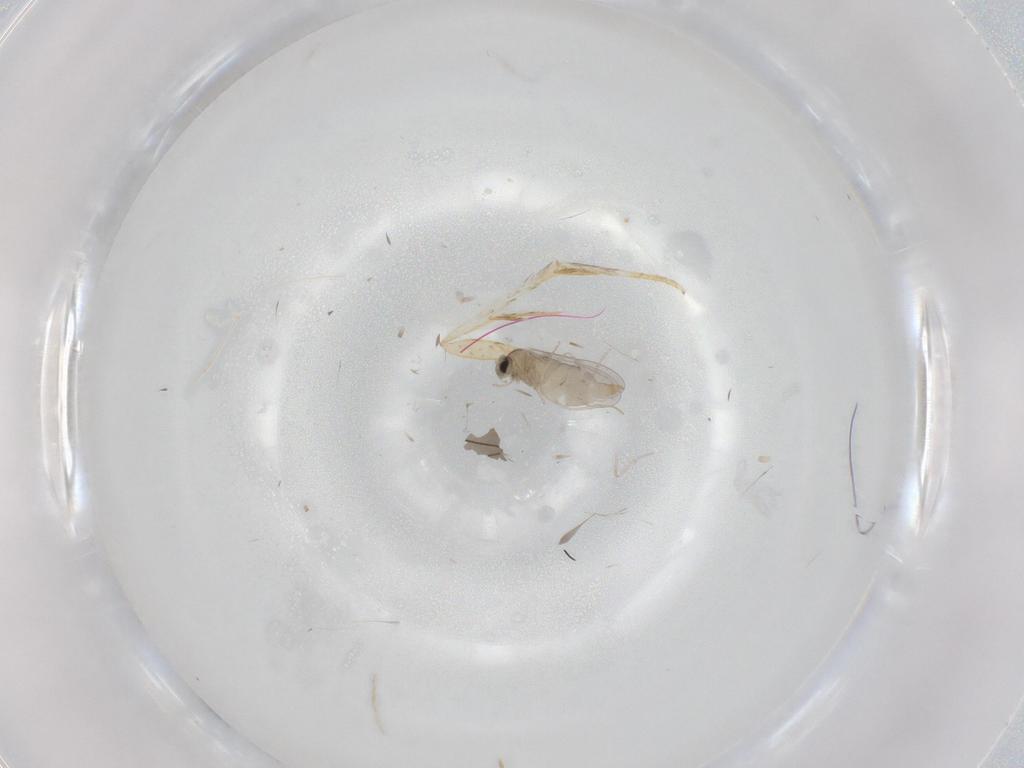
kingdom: Animalia
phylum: Arthropoda
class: Insecta
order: Diptera
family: Cecidomyiidae
